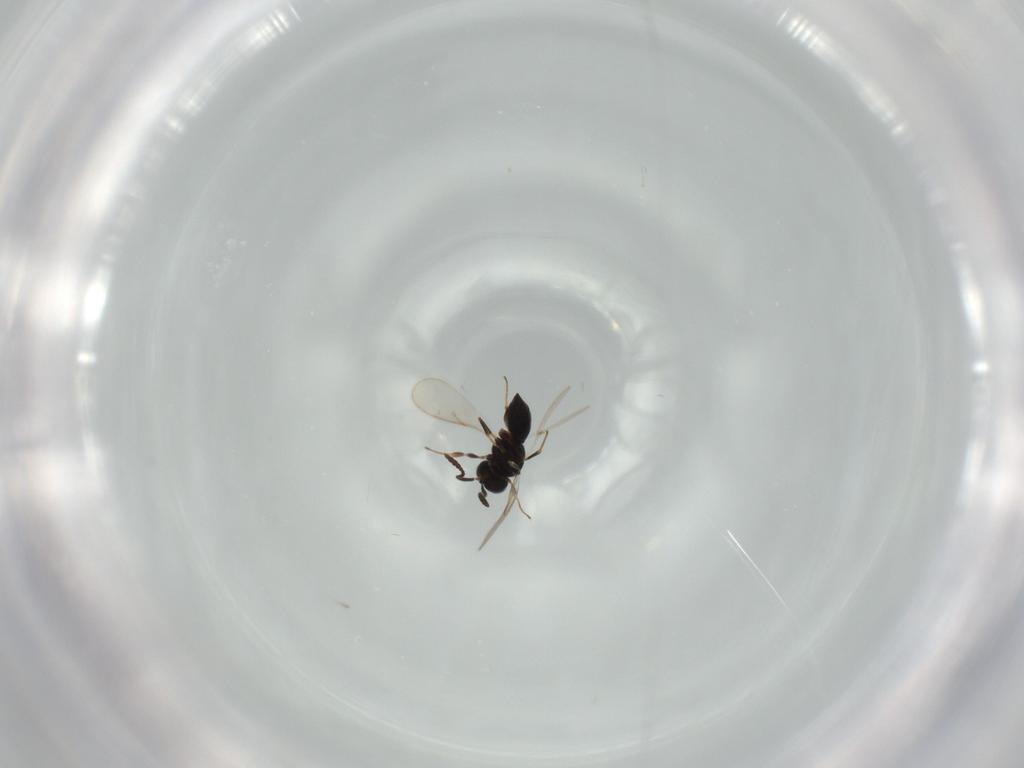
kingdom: Animalia
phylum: Arthropoda
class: Insecta
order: Hymenoptera
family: Scelionidae
